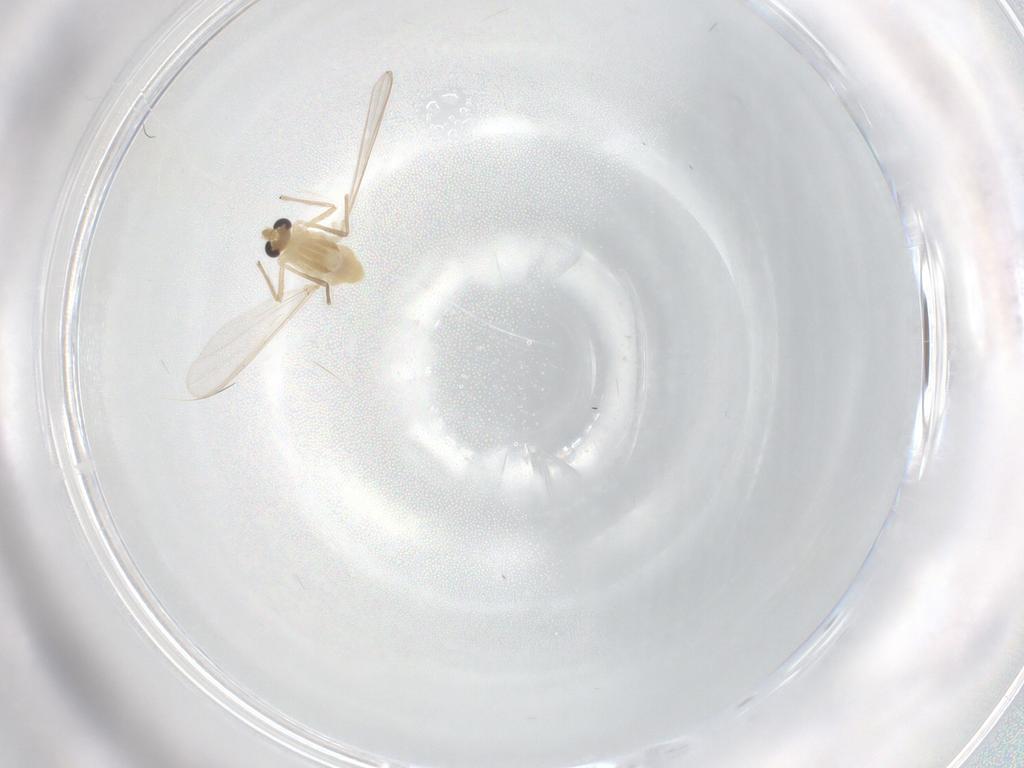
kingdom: Animalia
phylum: Arthropoda
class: Insecta
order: Diptera
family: Chironomidae
